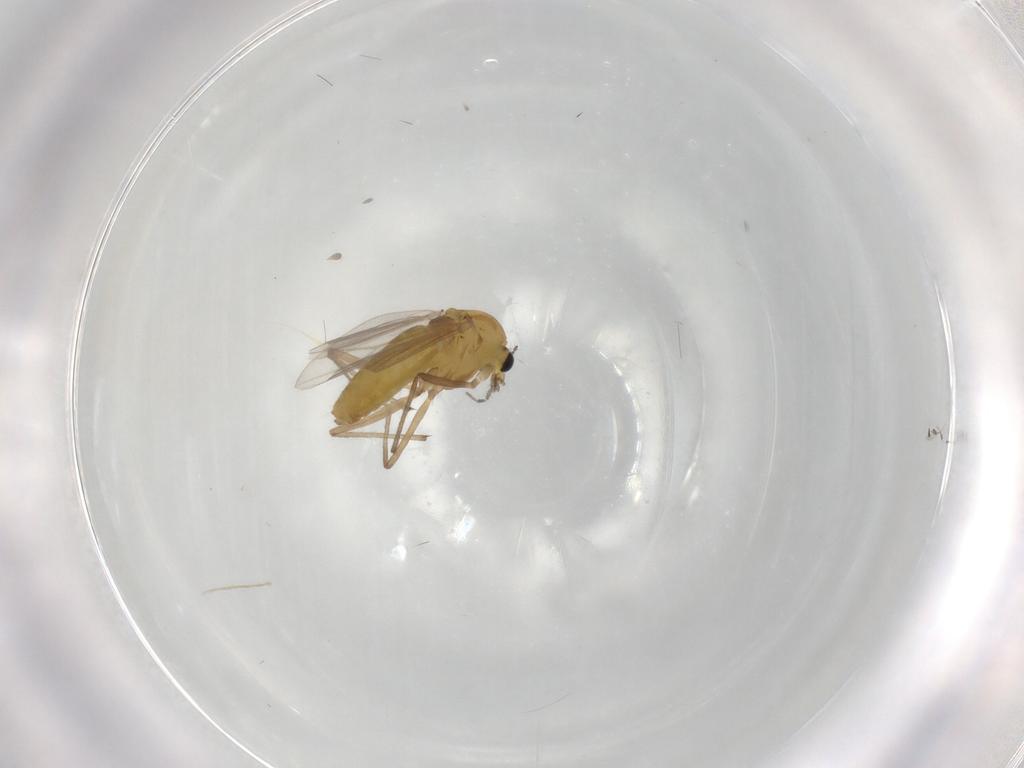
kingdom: Animalia
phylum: Arthropoda
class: Insecta
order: Diptera
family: Chironomidae
